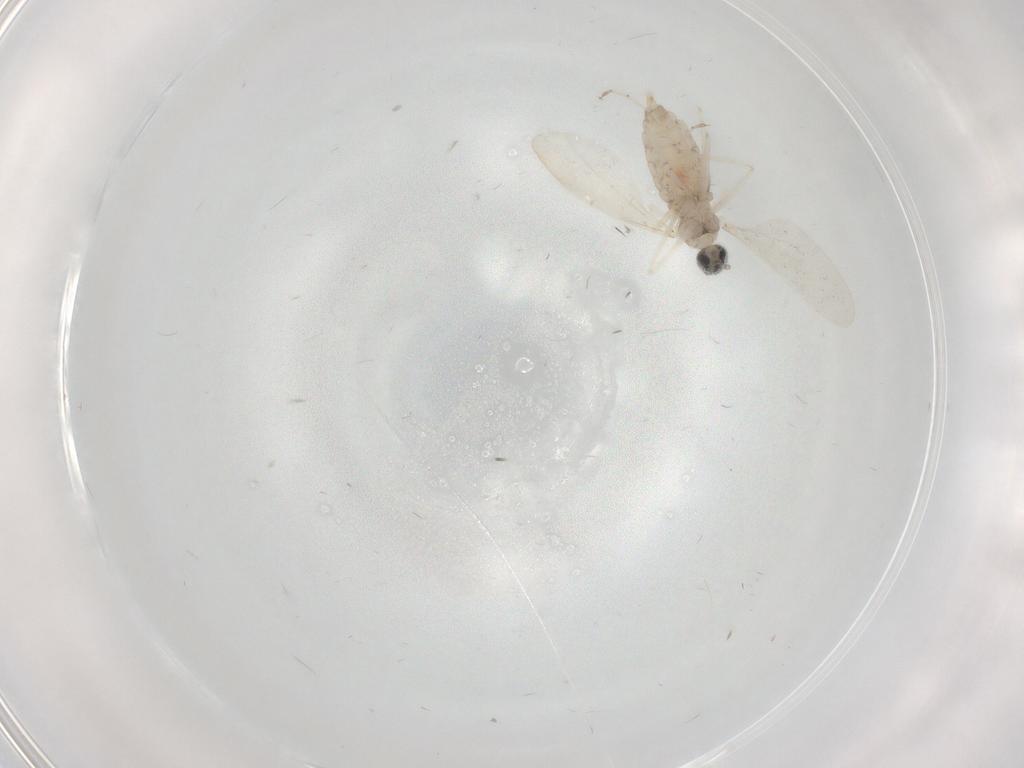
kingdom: Animalia
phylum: Arthropoda
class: Insecta
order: Diptera
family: Cecidomyiidae
